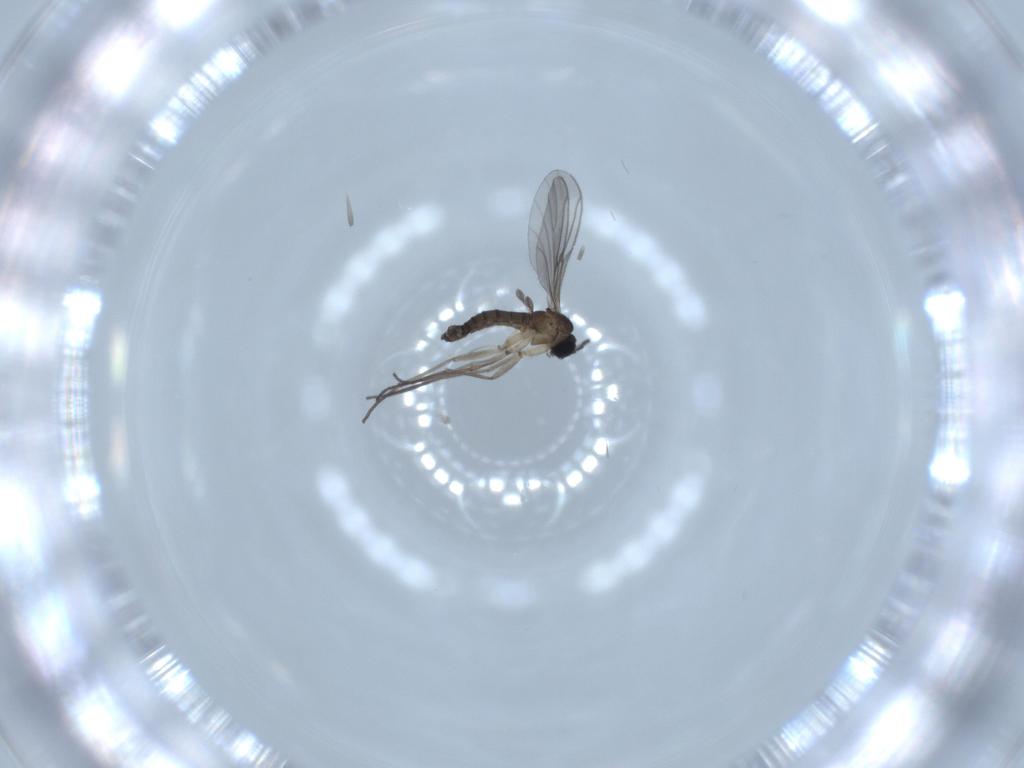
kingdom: Animalia
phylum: Arthropoda
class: Insecta
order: Diptera
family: Sciaridae
